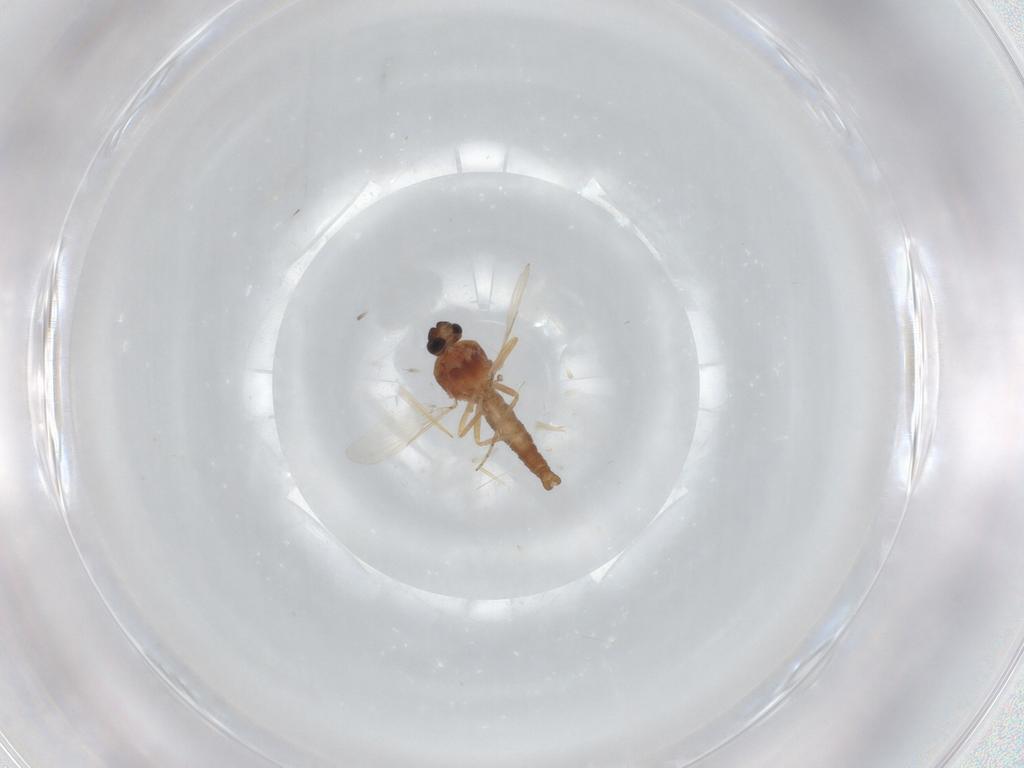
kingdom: Animalia
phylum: Arthropoda
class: Insecta
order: Diptera
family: Ceratopogonidae
